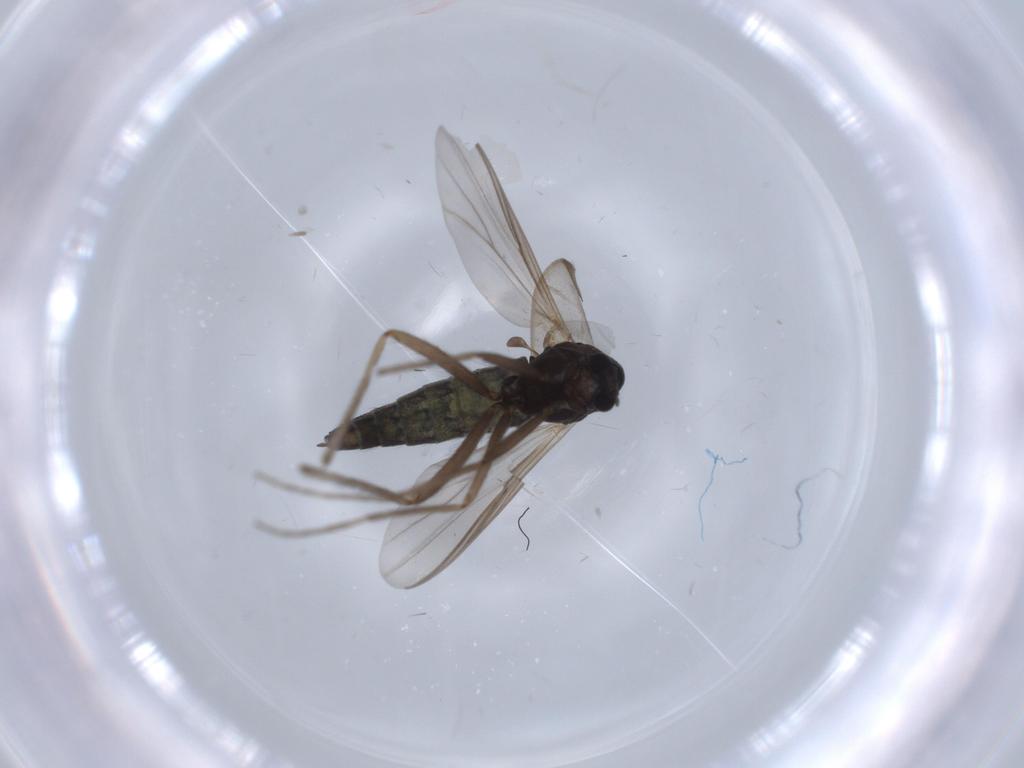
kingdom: Animalia
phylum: Arthropoda
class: Insecta
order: Diptera
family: Chironomidae
